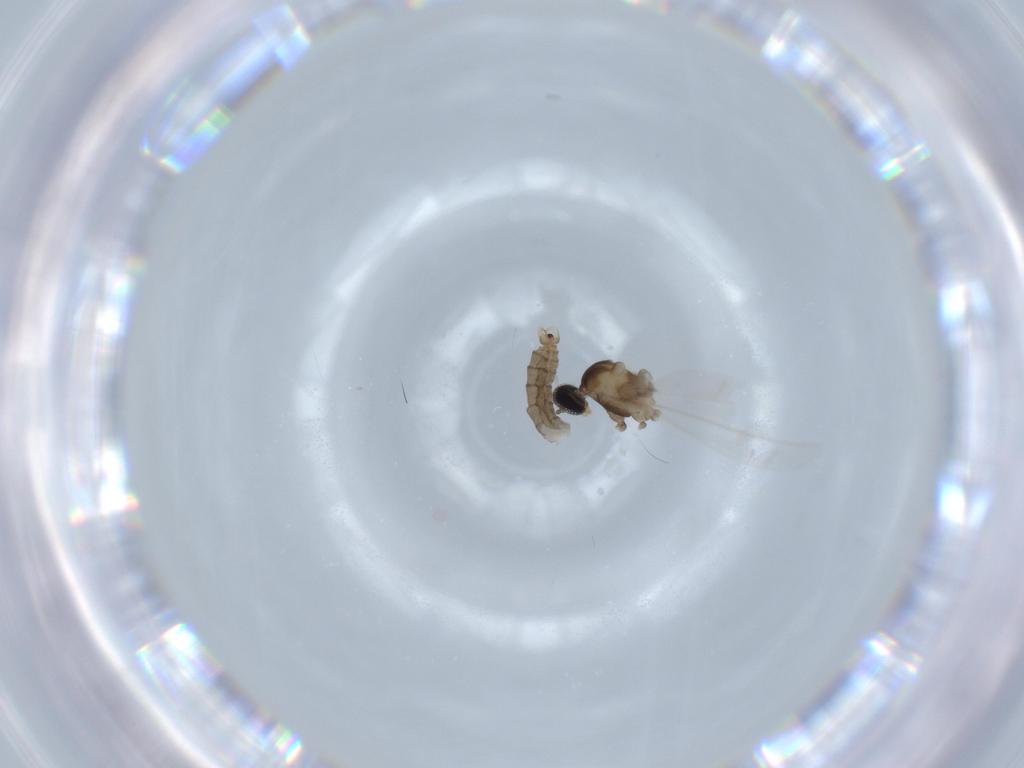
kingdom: Animalia
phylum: Arthropoda
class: Insecta
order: Diptera
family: Cecidomyiidae
